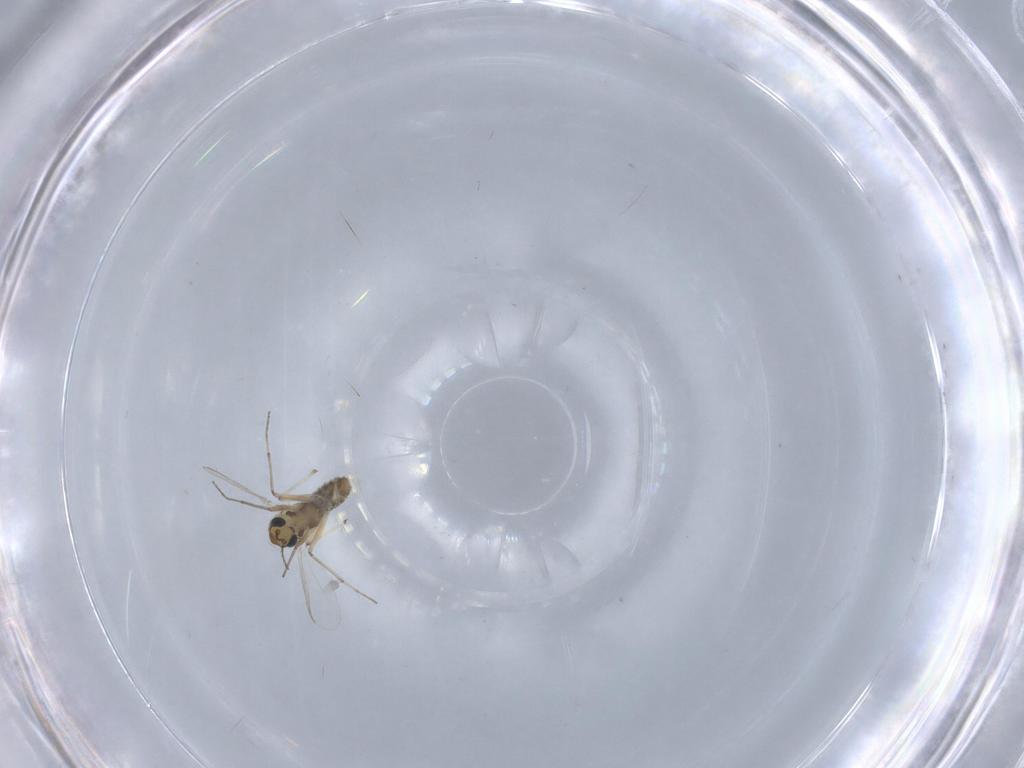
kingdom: Animalia
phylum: Arthropoda
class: Insecta
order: Diptera
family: Chironomidae
